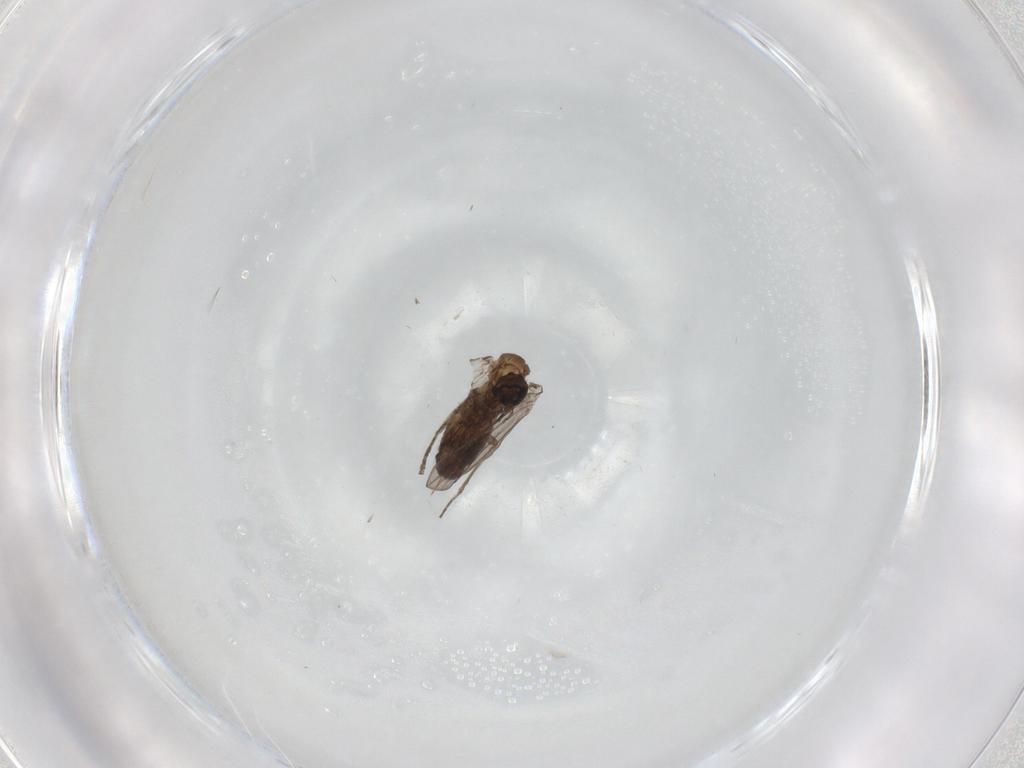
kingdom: Animalia
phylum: Arthropoda
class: Insecta
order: Diptera
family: Psychodidae
